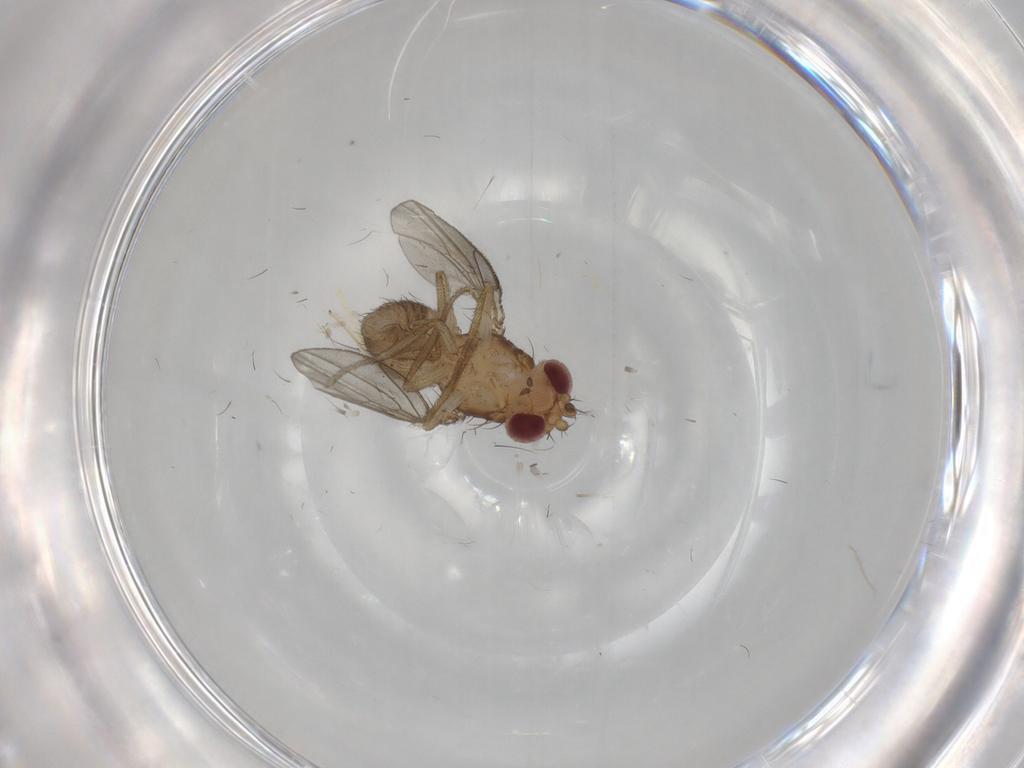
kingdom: Animalia
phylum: Arthropoda
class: Insecta
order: Diptera
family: Drosophilidae
